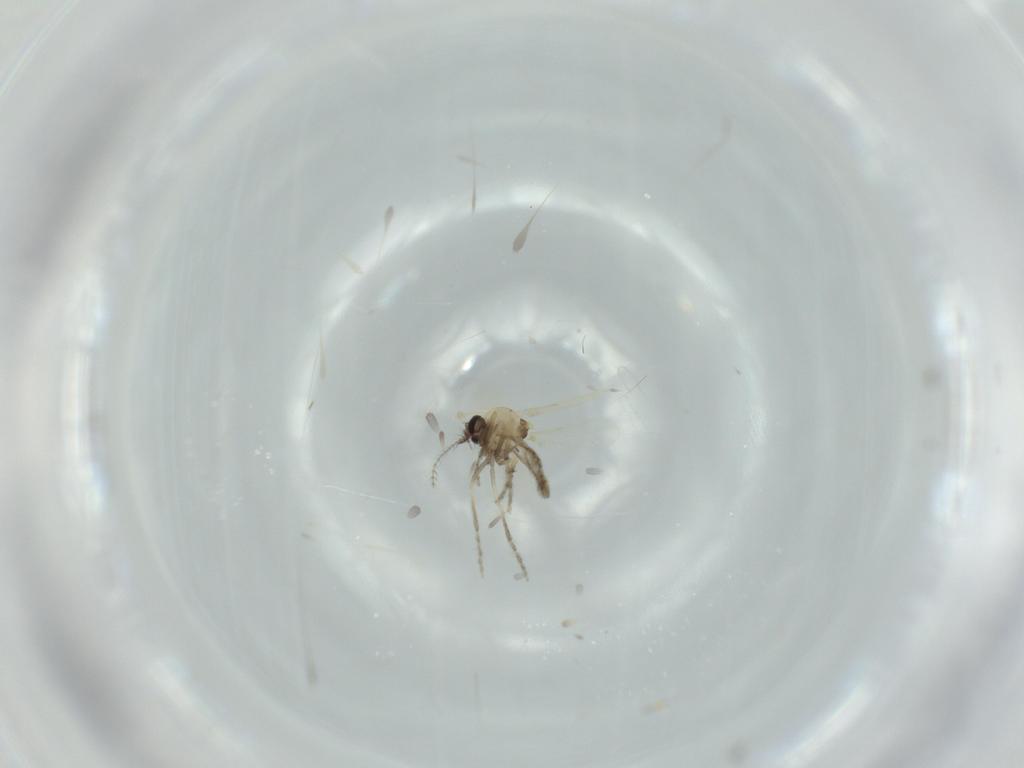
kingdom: Animalia
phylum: Arthropoda
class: Insecta
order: Diptera
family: Ceratopogonidae
